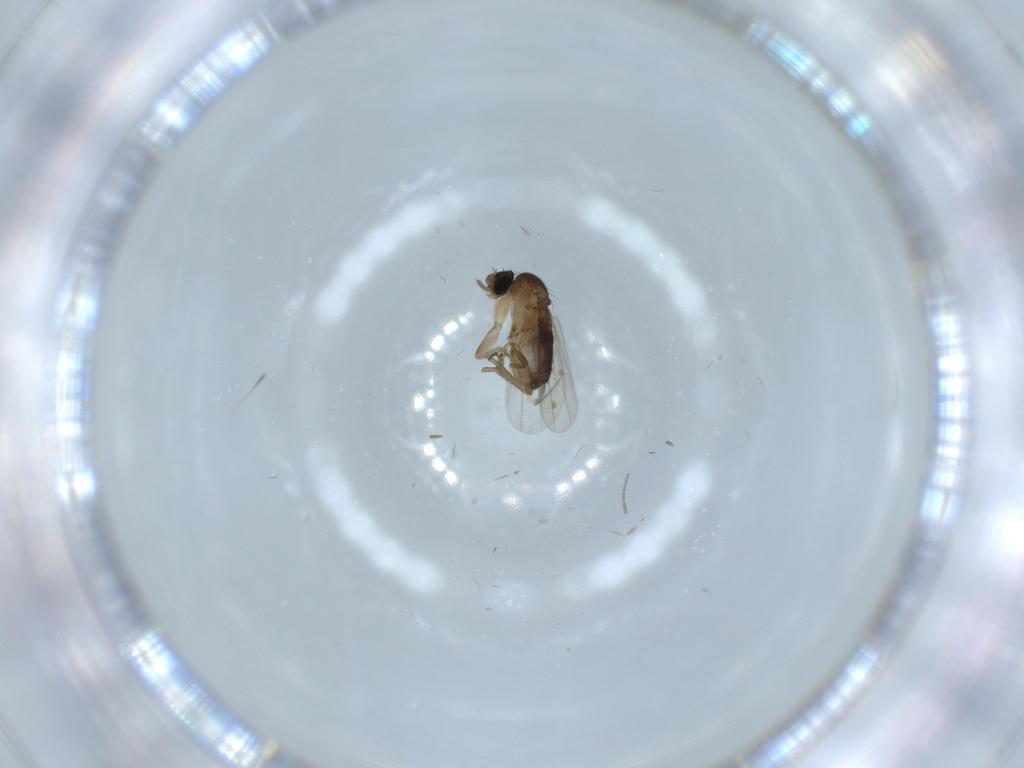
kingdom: Animalia
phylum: Arthropoda
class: Insecta
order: Diptera
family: Phoridae
